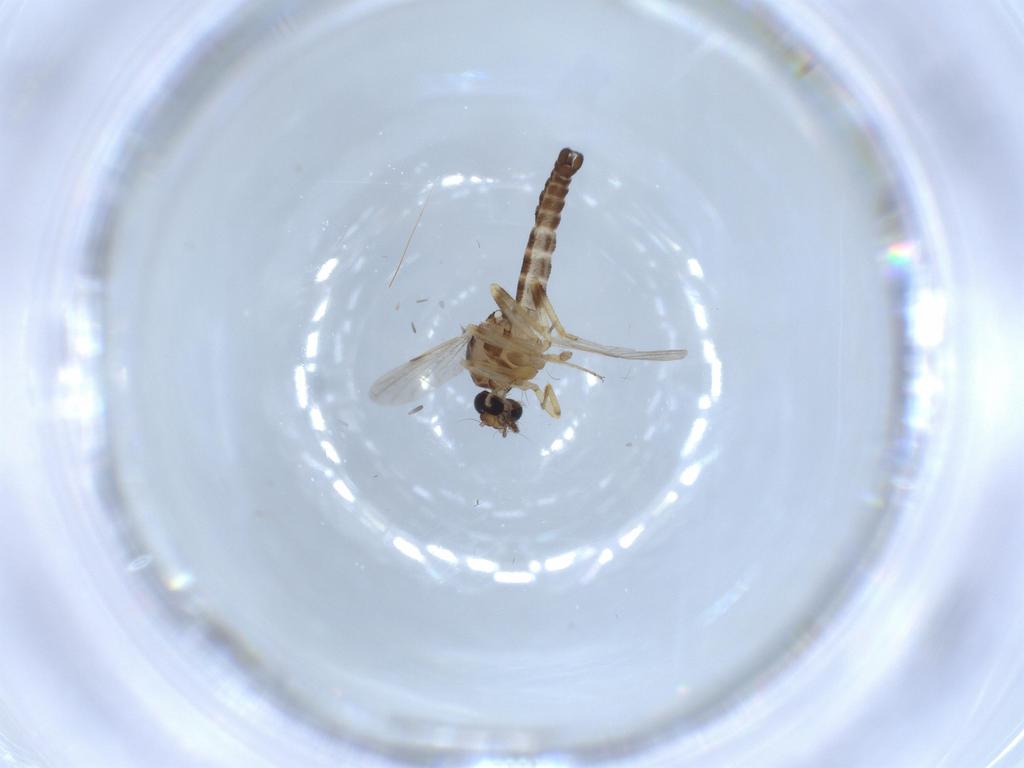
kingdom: Animalia
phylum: Arthropoda
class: Insecta
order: Diptera
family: Ceratopogonidae
